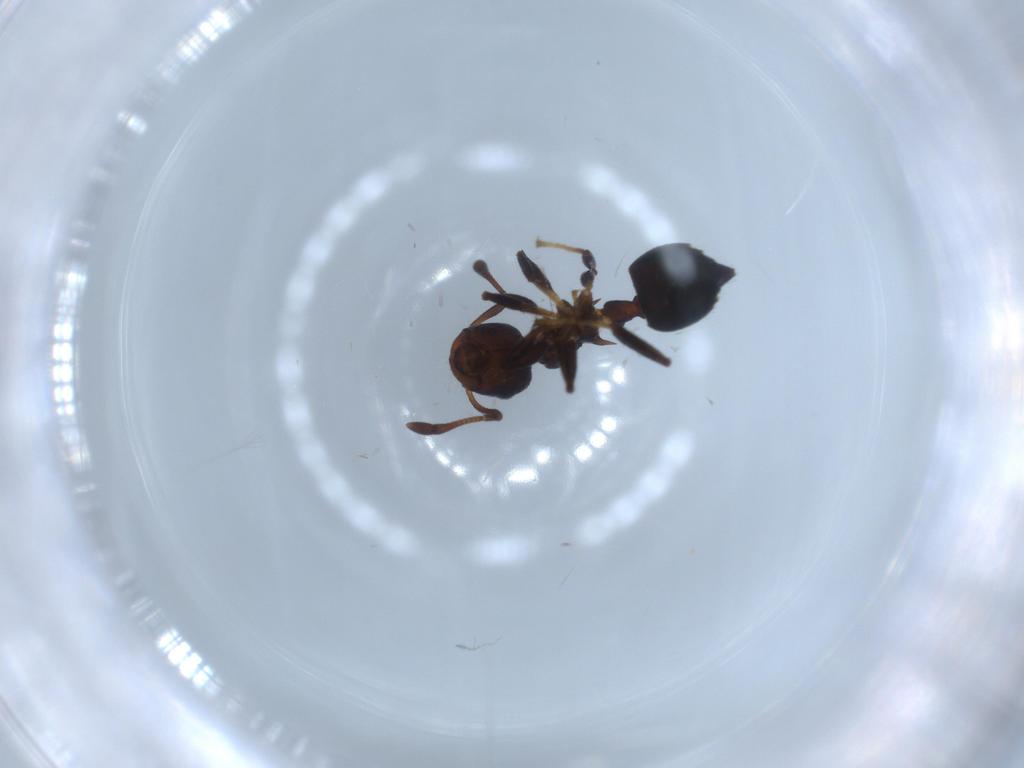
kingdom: Animalia
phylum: Arthropoda
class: Insecta
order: Hymenoptera
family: Formicidae
